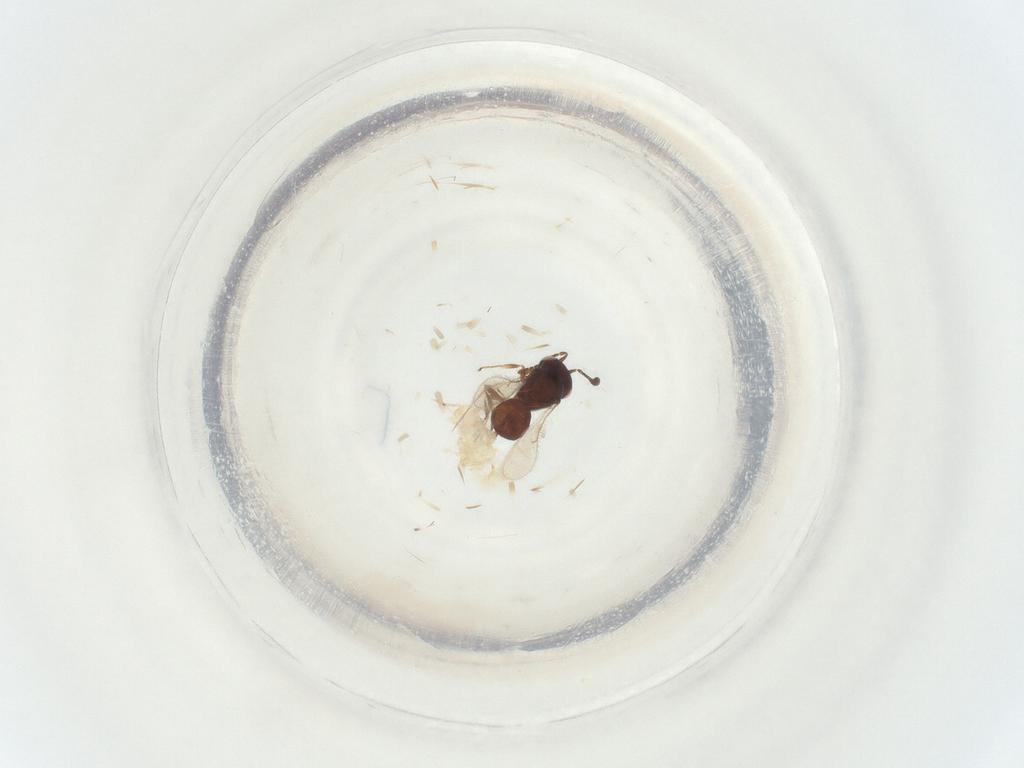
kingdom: Animalia
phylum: Arthropoda
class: Insecta
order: Hymenoptera
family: Scelionidae
